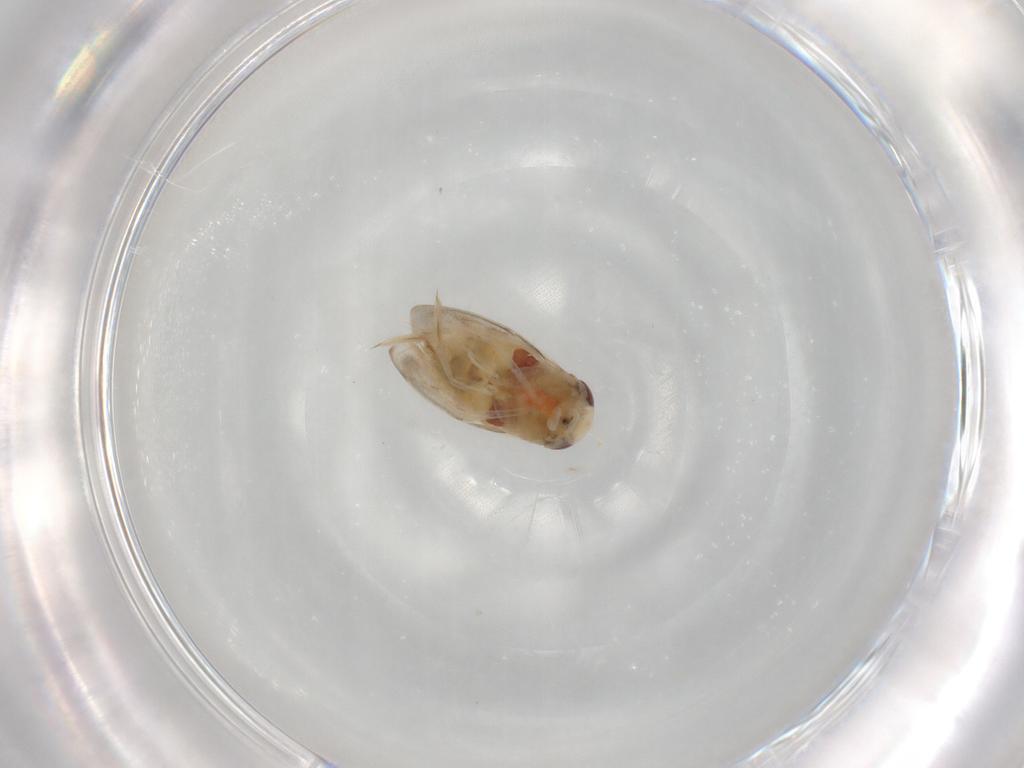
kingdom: Animalia
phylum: Arthropoda
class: Insecta
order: Hemiptera
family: Cicadellidae
